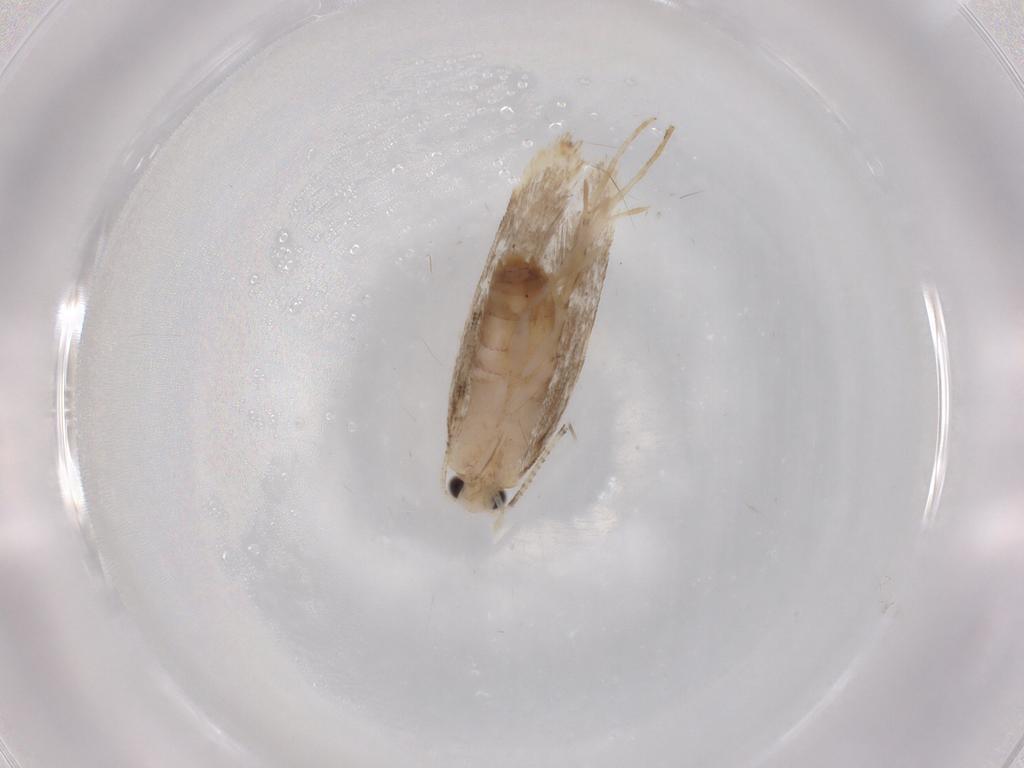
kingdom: Animalia
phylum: Arthropoda
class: Insecta
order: Lepidoptera
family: Dryadaulidae
